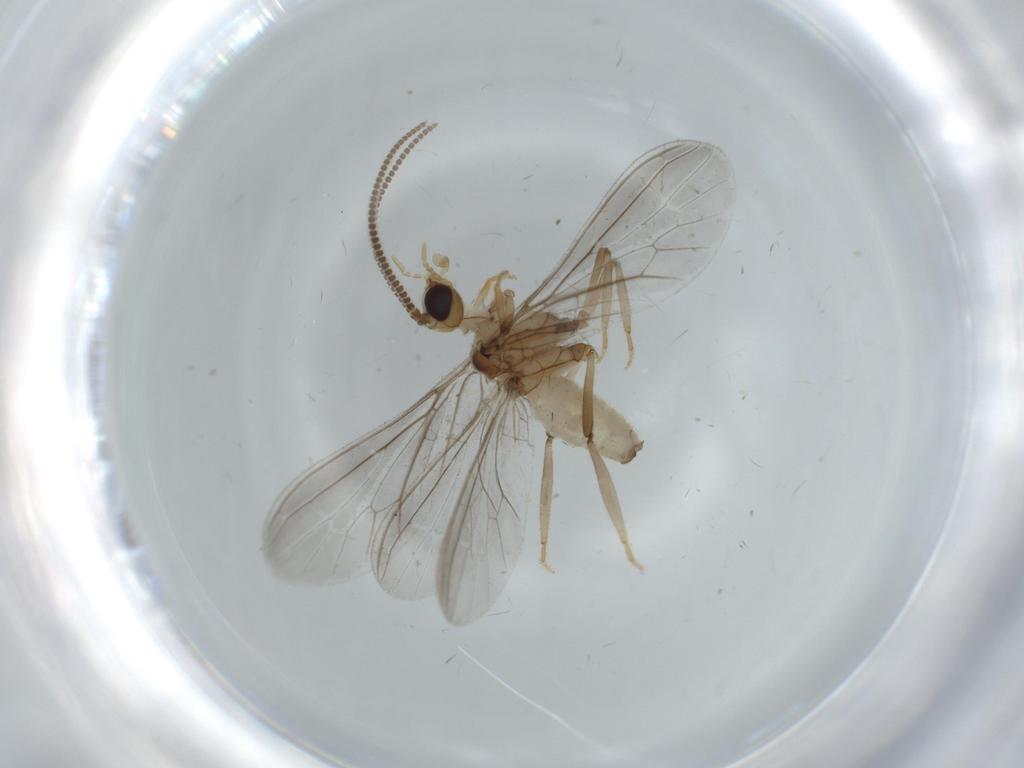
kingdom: Animalia
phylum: Arthropoda
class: Insecta
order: Neuroptera
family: Coniopterygidae
